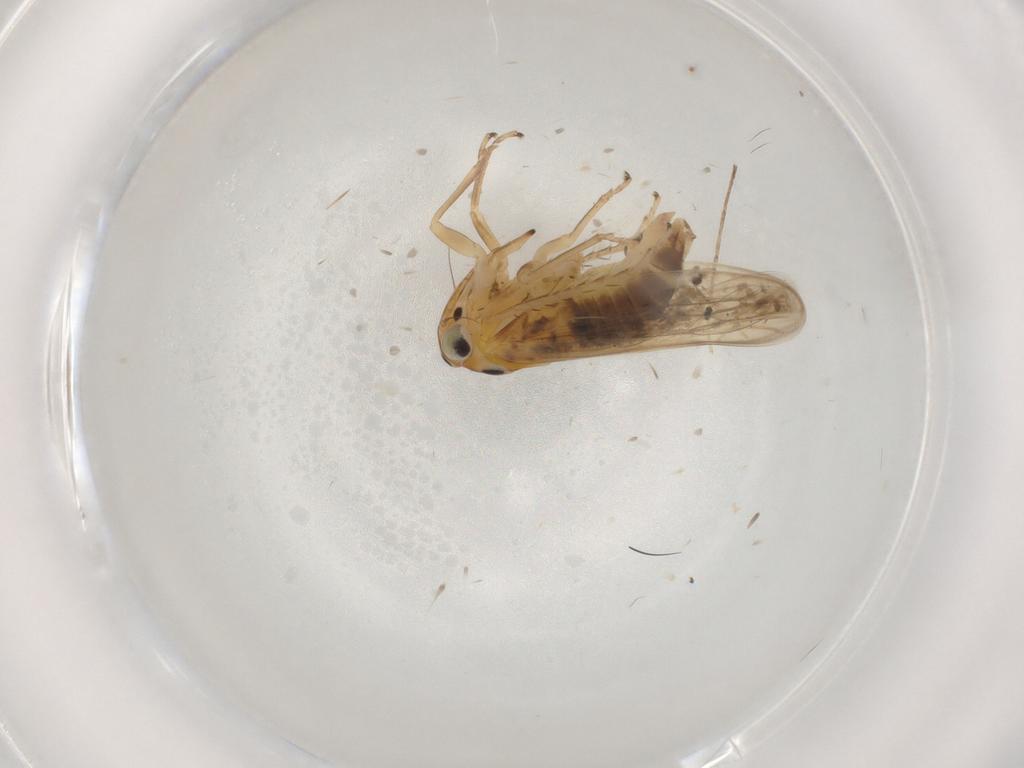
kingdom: Animalia
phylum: Arthropoda
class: Insecta
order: Hemiptera
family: Cicadellidae
